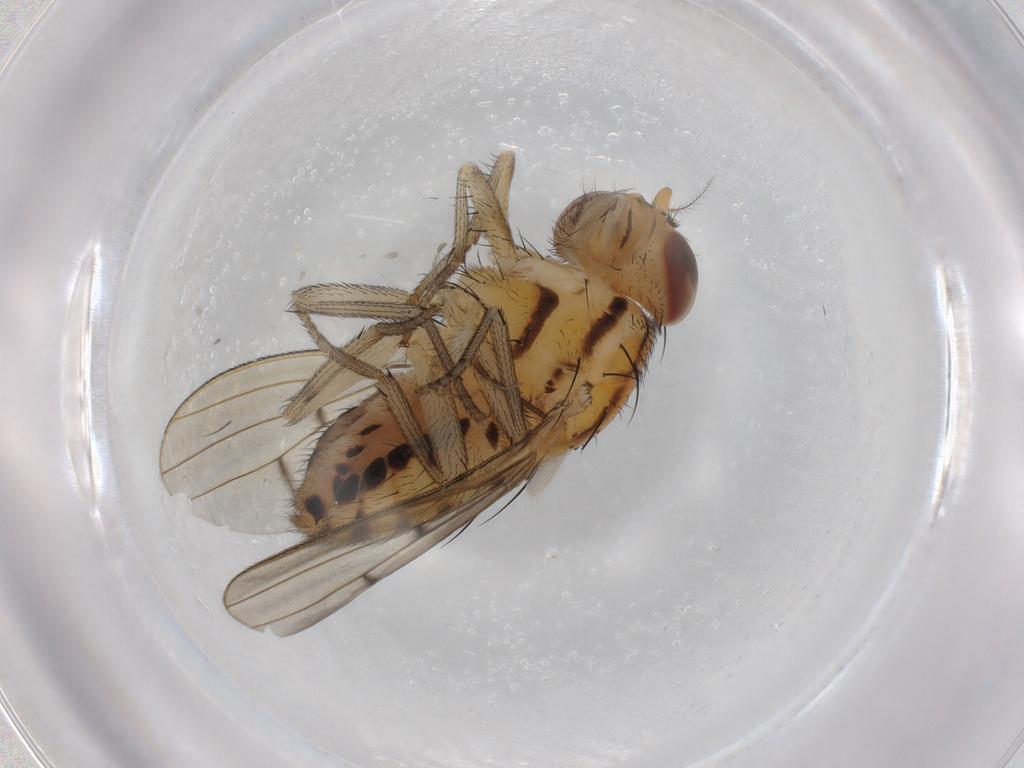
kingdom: Animalia
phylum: Arthropoda
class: Insecta
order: Diptera
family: Lauxaniidae
